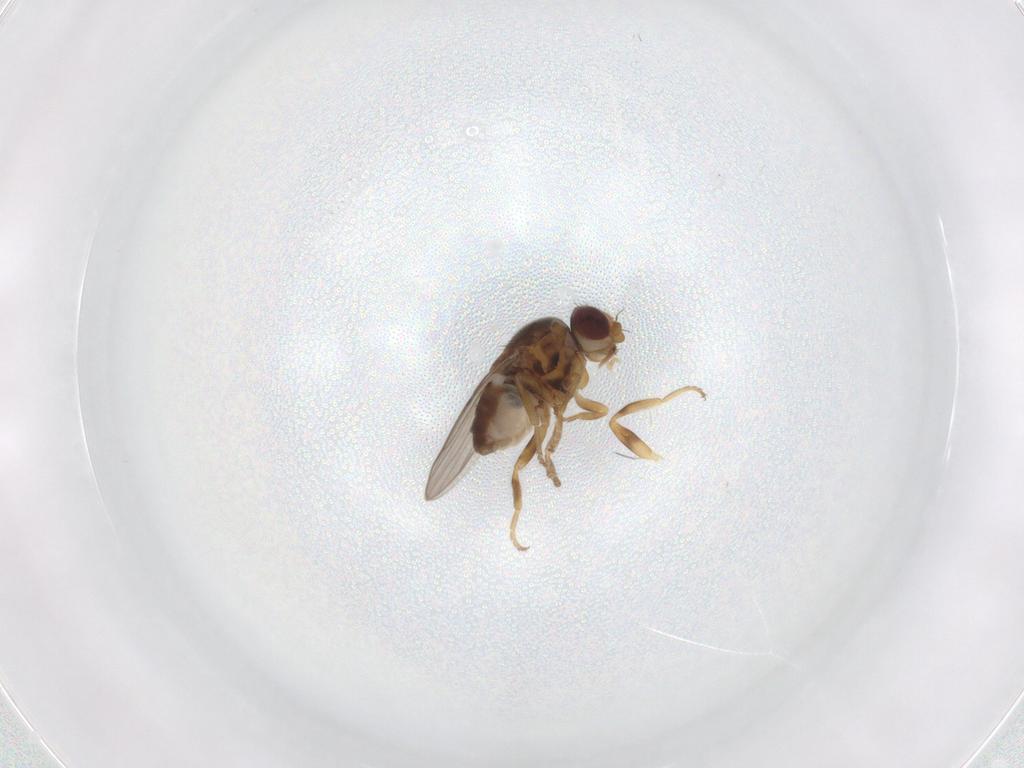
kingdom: Animalia
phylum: Arthropoda
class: Insecta
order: Diptera
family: Chloropidae
